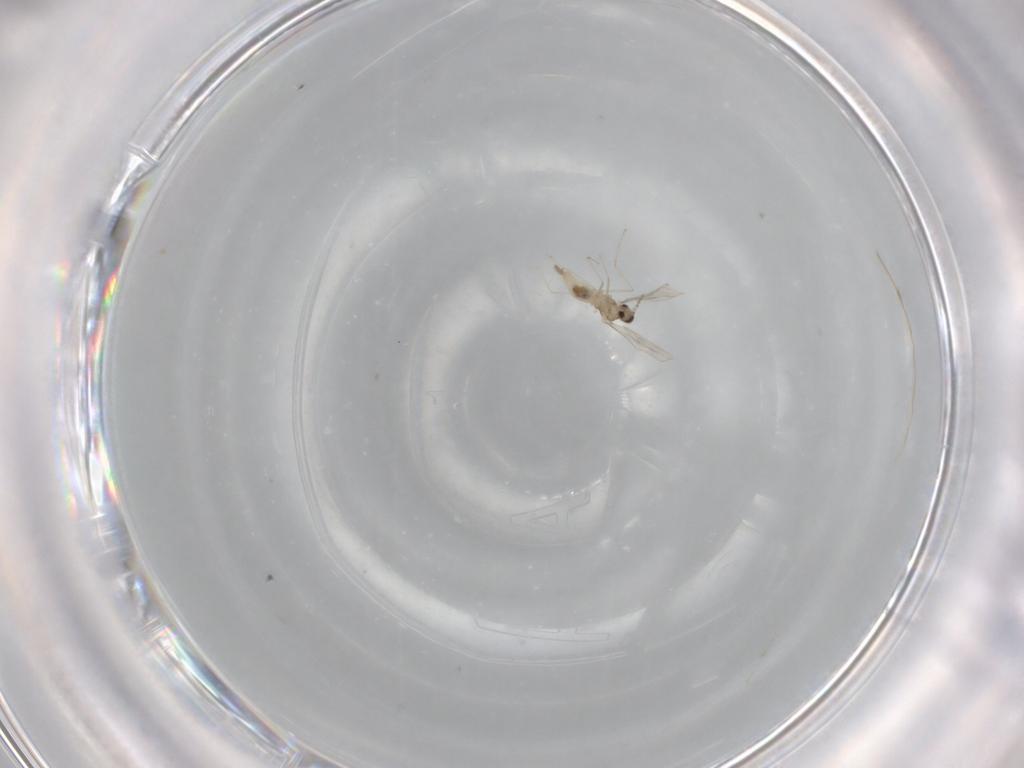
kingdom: Animalia
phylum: Arthropoda
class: Insecta
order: Diptera
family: Cecidomyiidae
